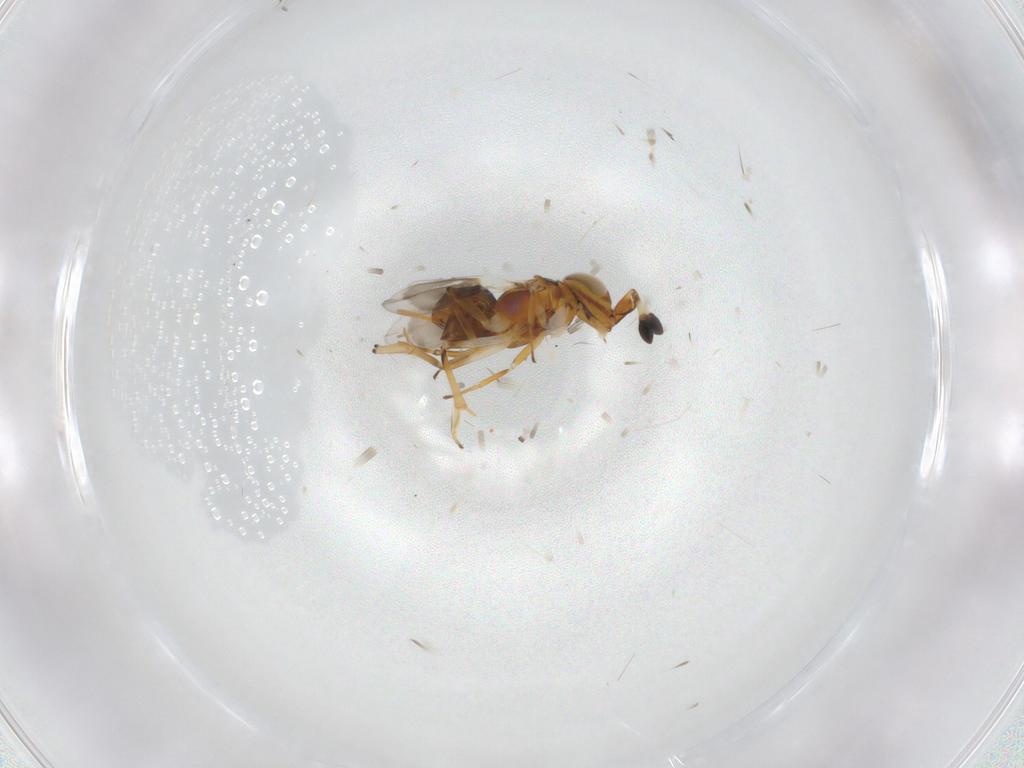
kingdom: Animalia
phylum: Arthropoda
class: Insecta
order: Hymenoptera
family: Encyrtidae
